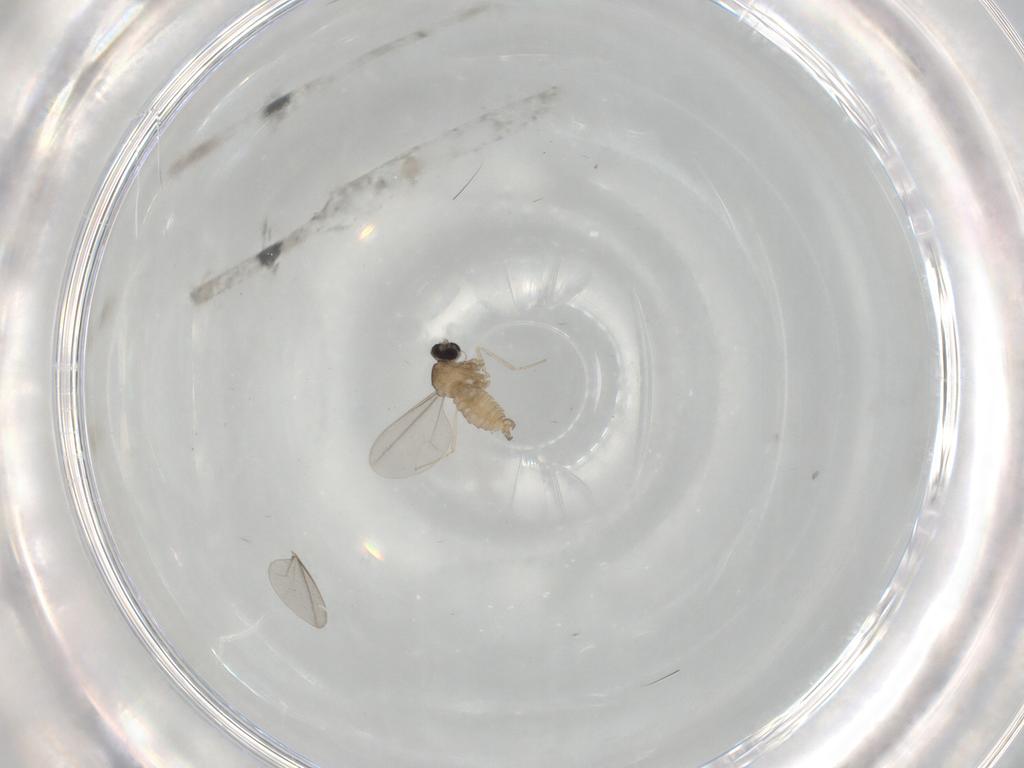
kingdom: Animalia
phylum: Arthropoda
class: Insecta
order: Diptera
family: Cecidomyiidae
